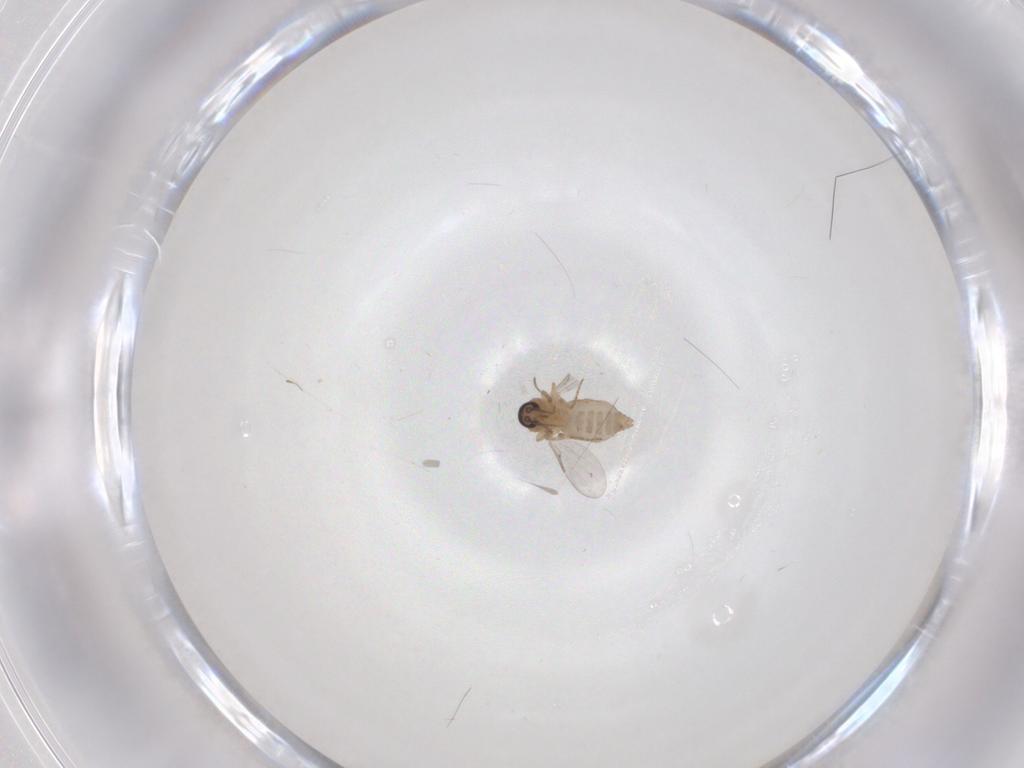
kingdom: Animalia
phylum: Arthropoda
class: Insecta
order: Diptera
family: Ceratopogonidae
